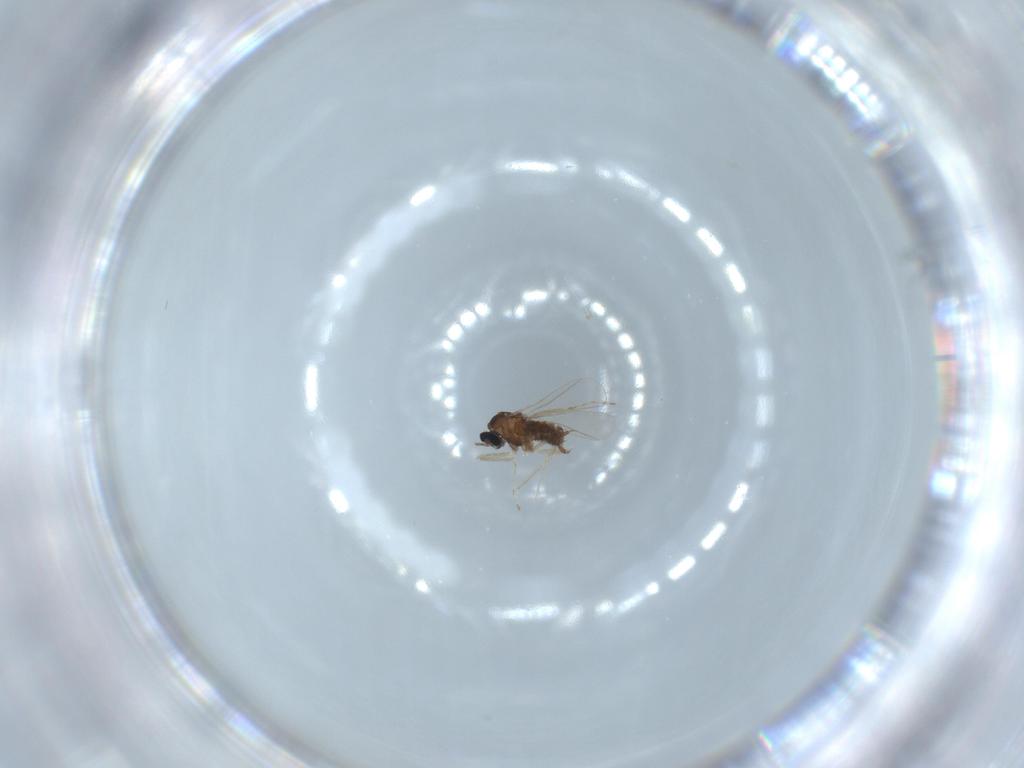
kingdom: Animalia
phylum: Arthropoda
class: Insecta
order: Diptera
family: Cecidomyiidae
